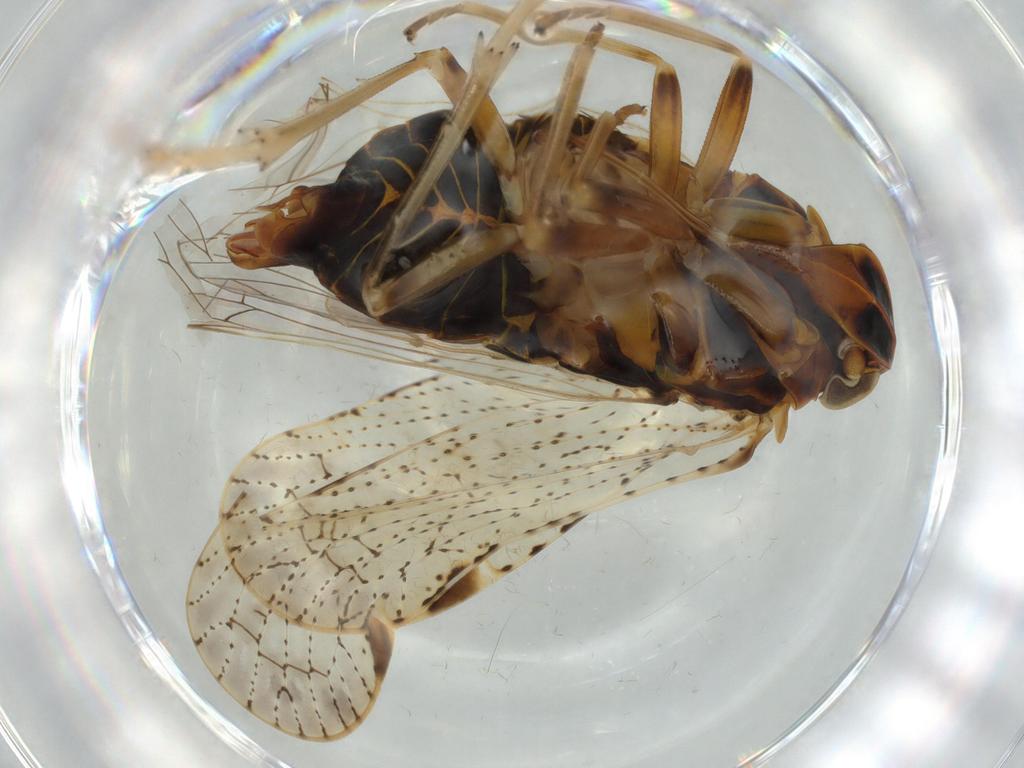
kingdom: Animalia
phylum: Arthropoda
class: Insecta
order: Hemiptera
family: Cixiidae
